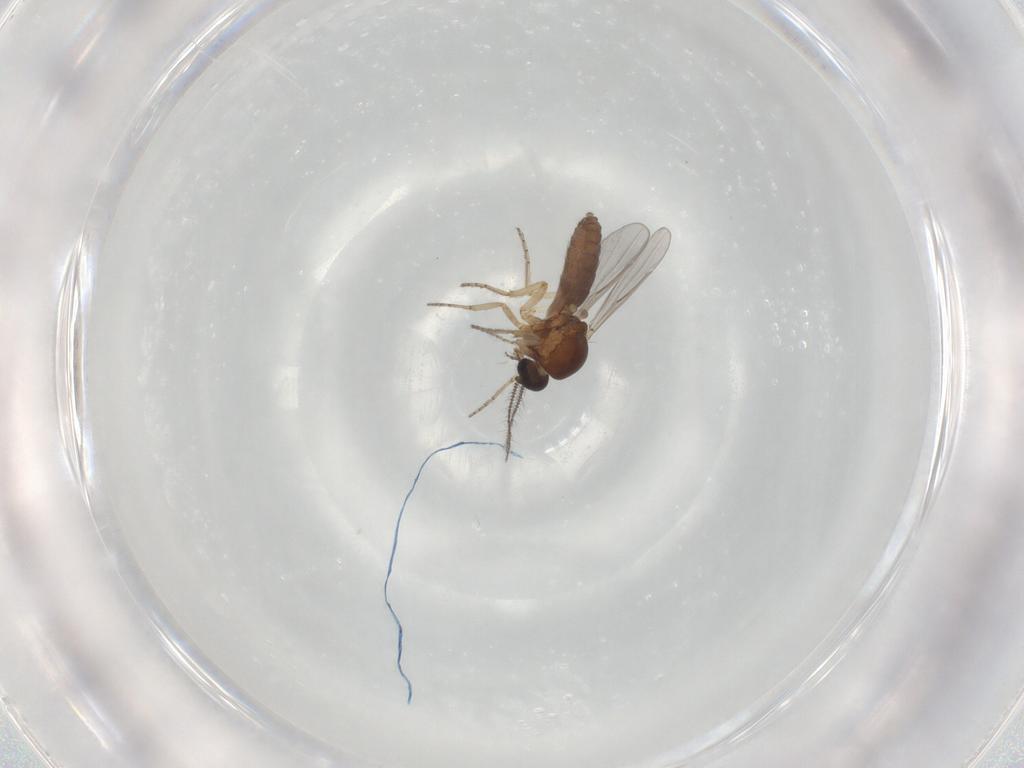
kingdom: Animalia
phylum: Arthropoda
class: Insecta
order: Diptera
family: Ceratopogonidae
